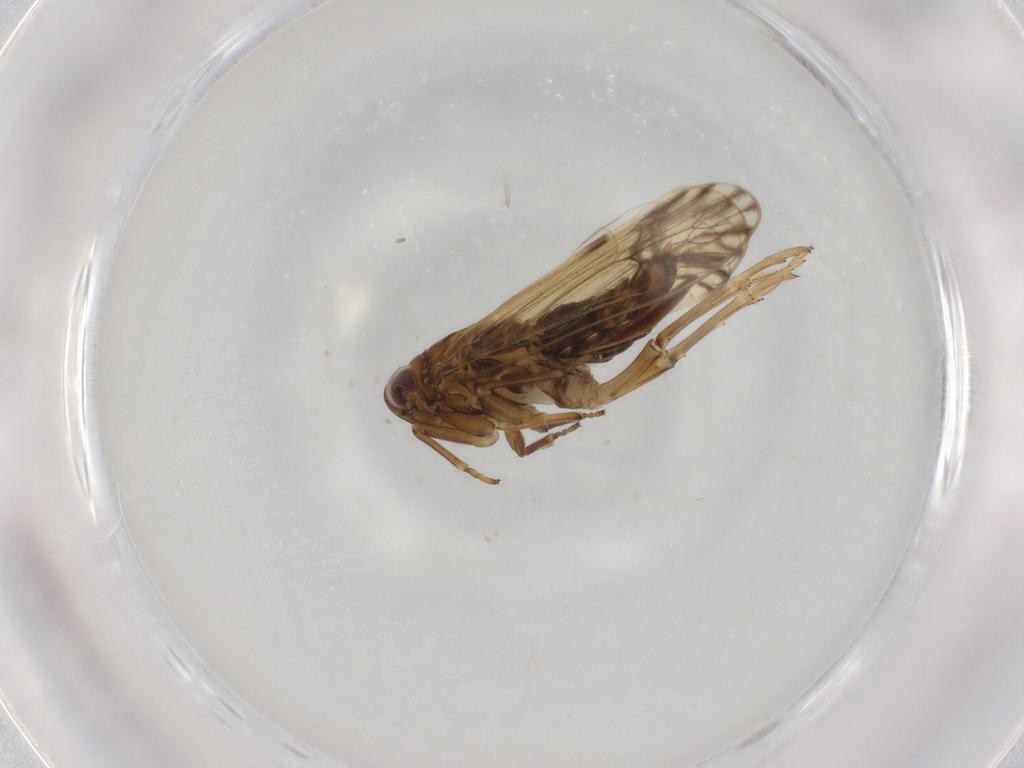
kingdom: Animalia
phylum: Arthropoda
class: Insecta
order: Hemiptera
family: Delphacidae
